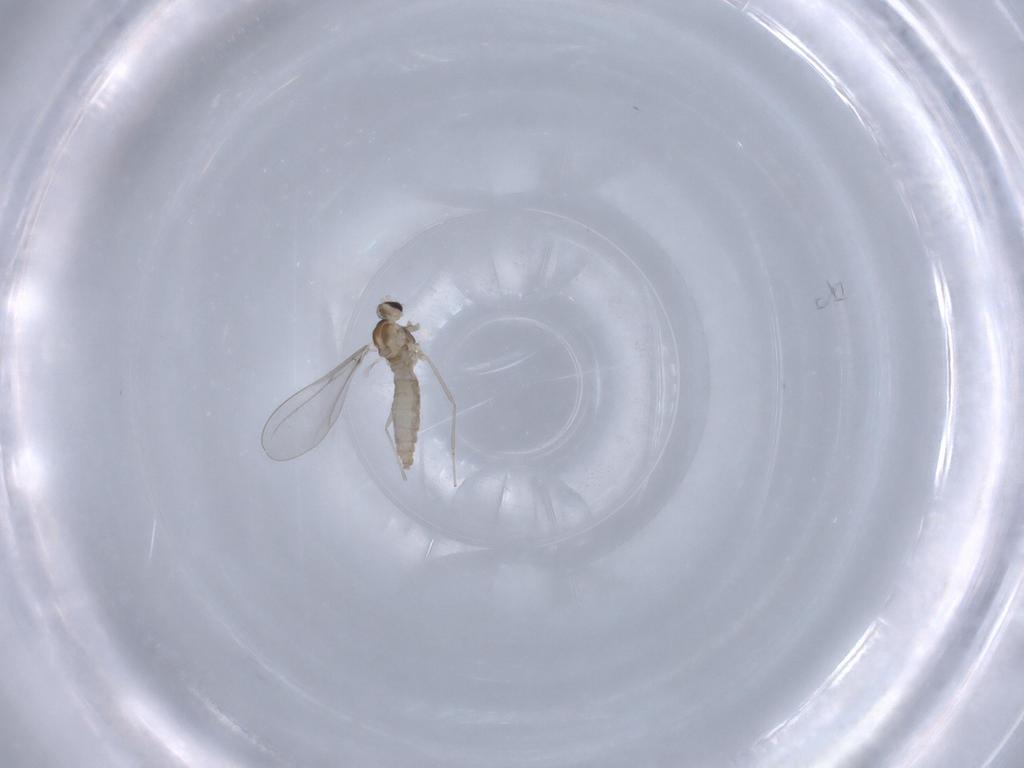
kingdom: Animalia
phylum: Arthropoda
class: Insecta
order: Diptera
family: Cecidomyiidae
